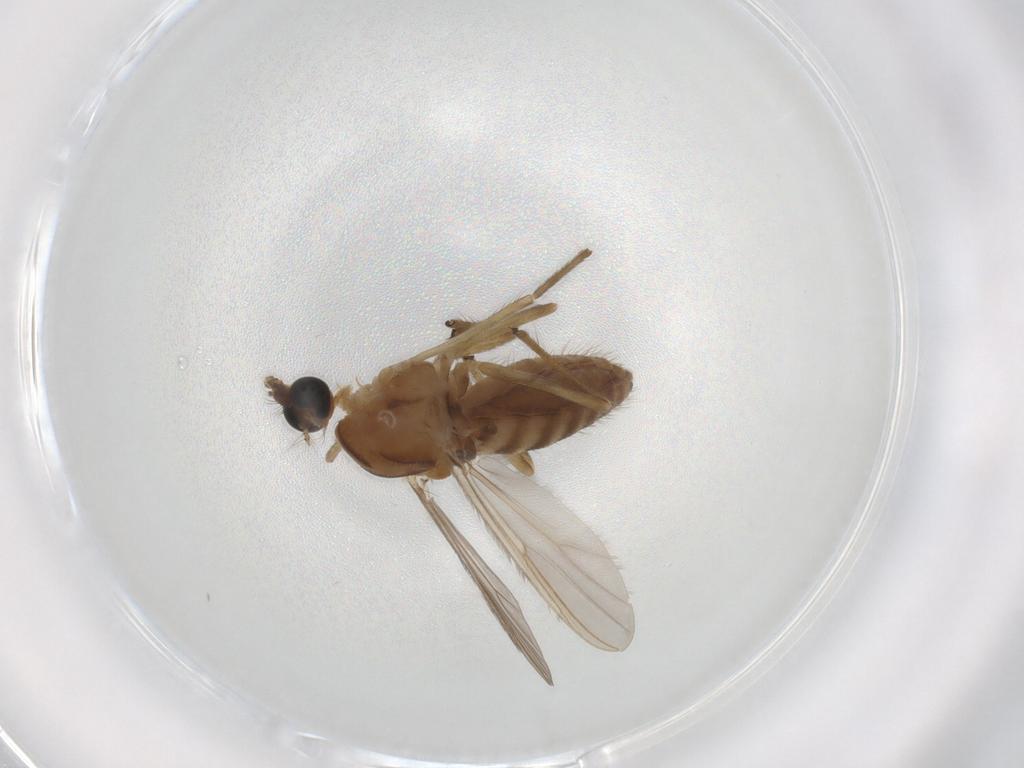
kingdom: Animalia
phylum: Arthropoda
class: Insecta
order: Diptera
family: Chironomidae
